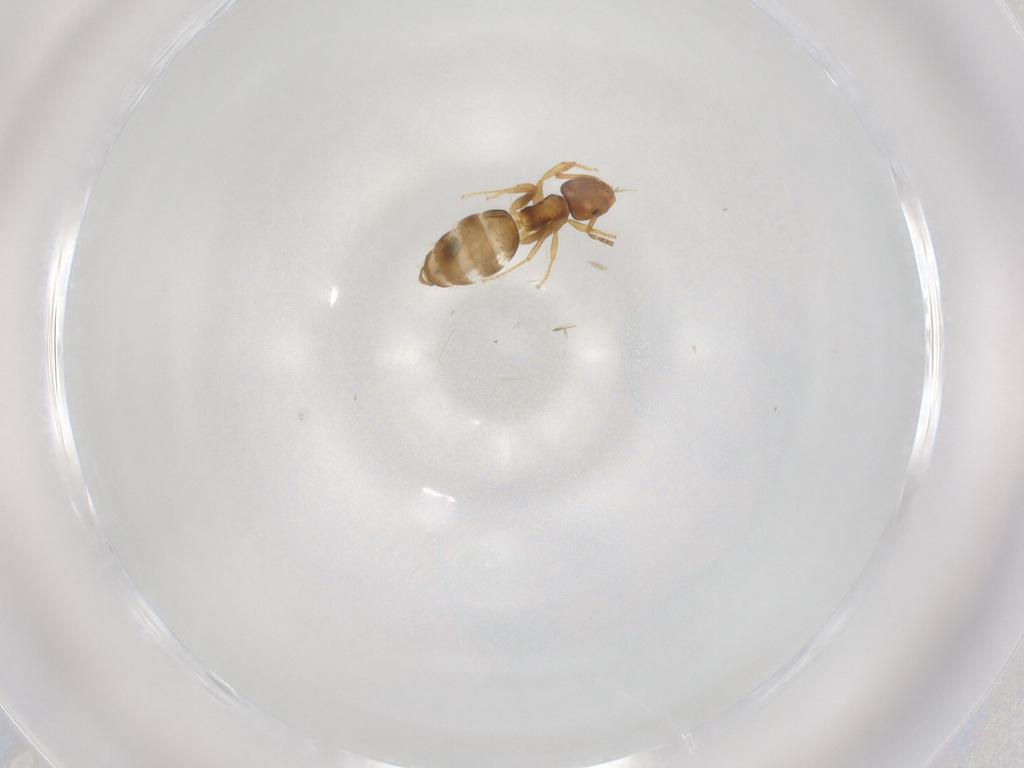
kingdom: Animalia
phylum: Arthropoda
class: Insecta
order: Hymenoptera
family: Formicidae
